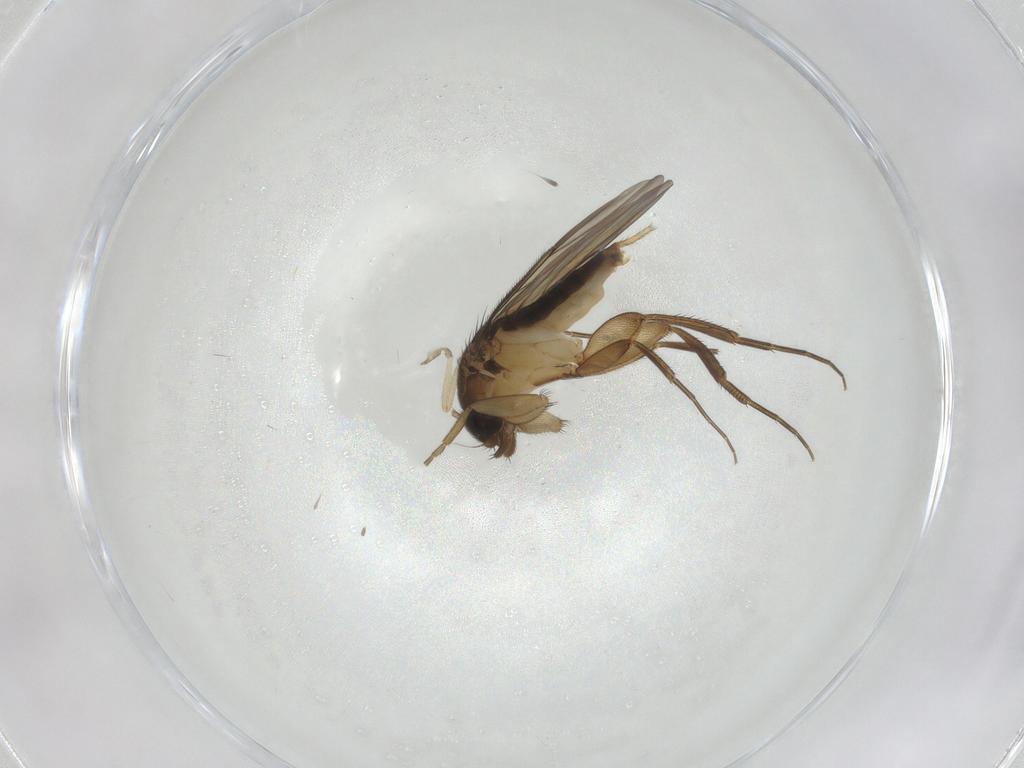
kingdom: Animalia
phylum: Arthropoda
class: Insecta
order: Diptera
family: Phoridae
